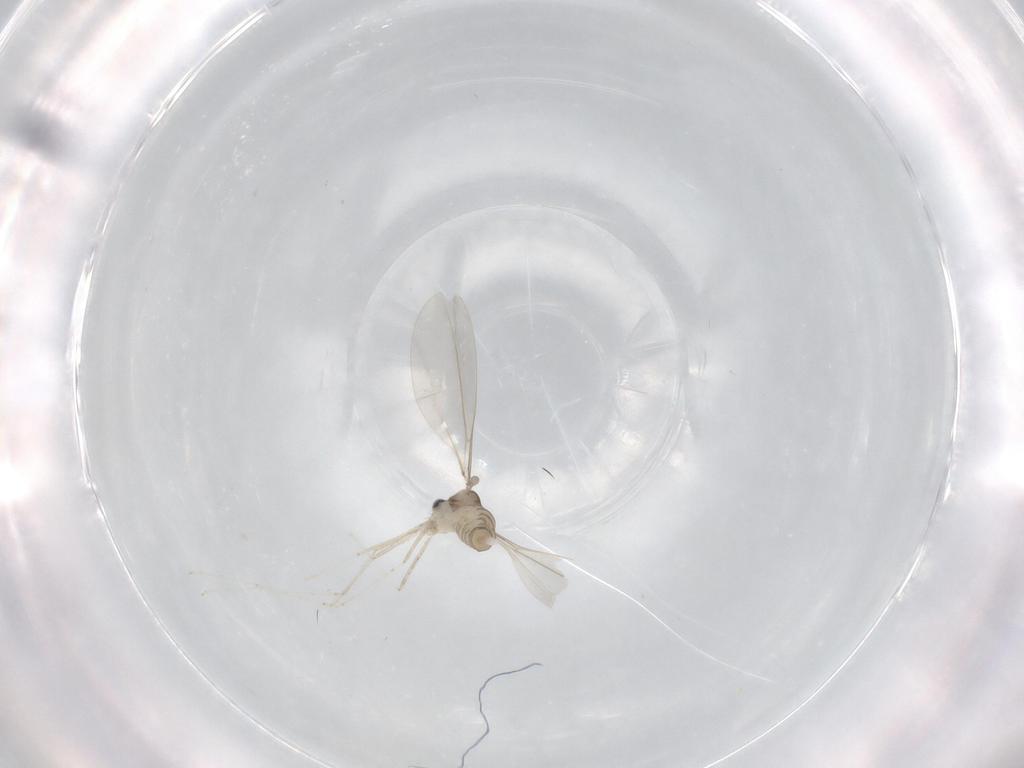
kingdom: Animalia
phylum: Arthropoda
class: Insecta
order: Diptera
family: Cecidomyiidae
